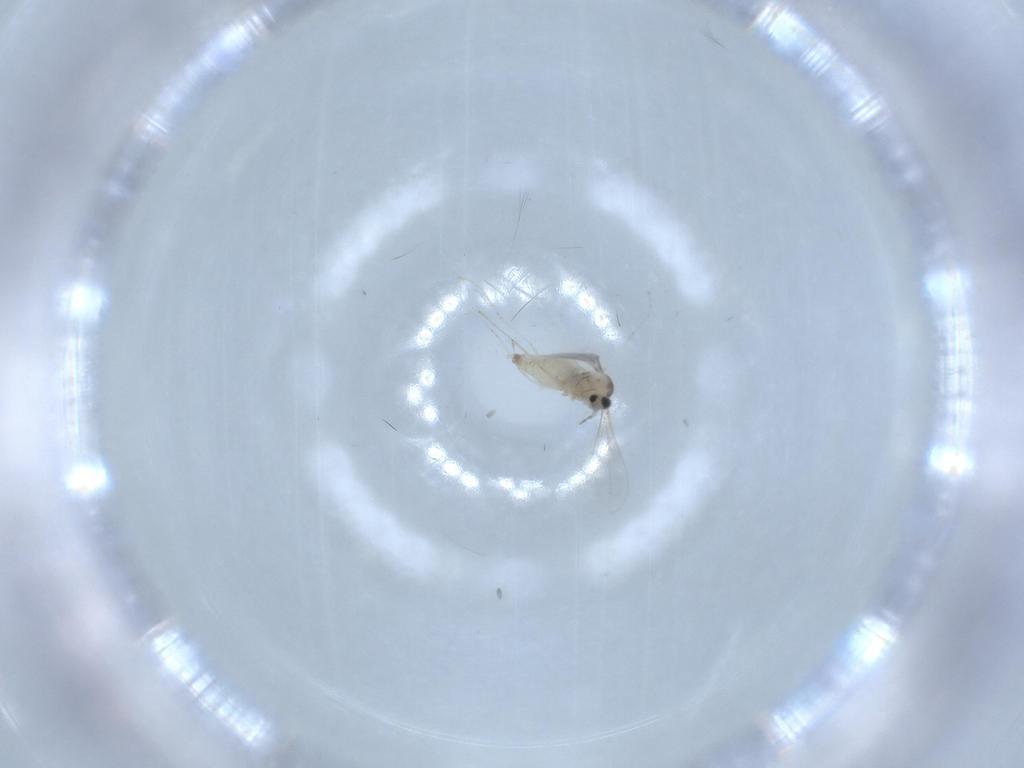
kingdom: Animalia
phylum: Arthropoda
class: Insecta
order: Diptera
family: Cecidomyiidae
